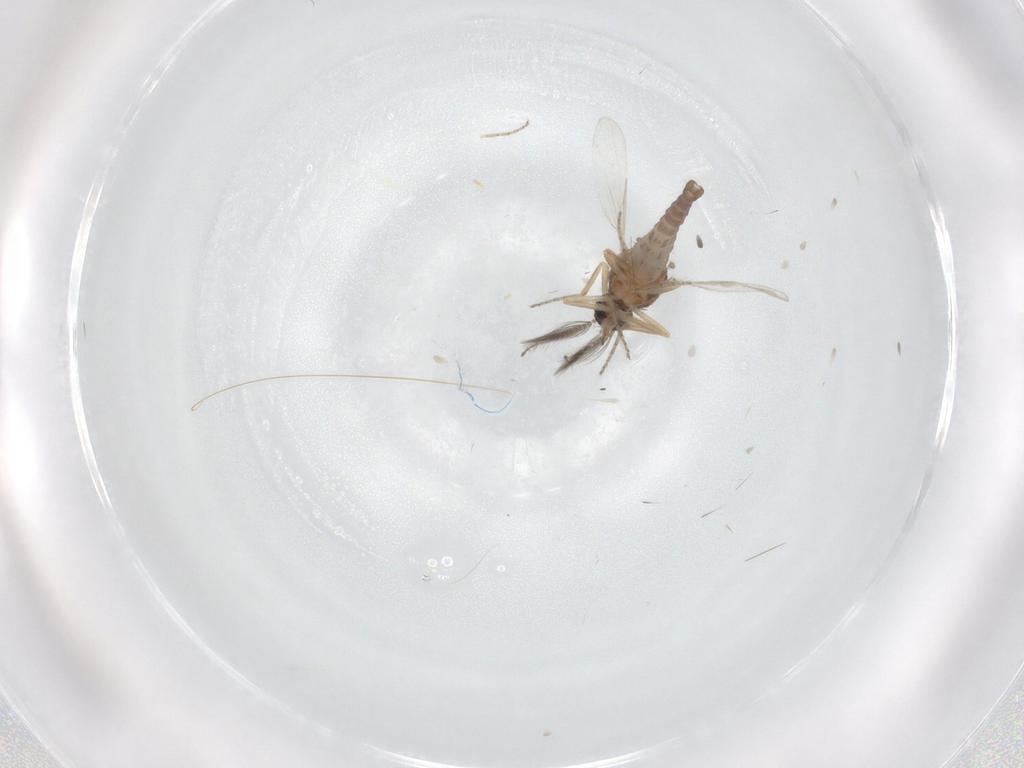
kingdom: Animalia
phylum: Arthropoda
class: Insecta
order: Diptera
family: Ceratopogonidae
